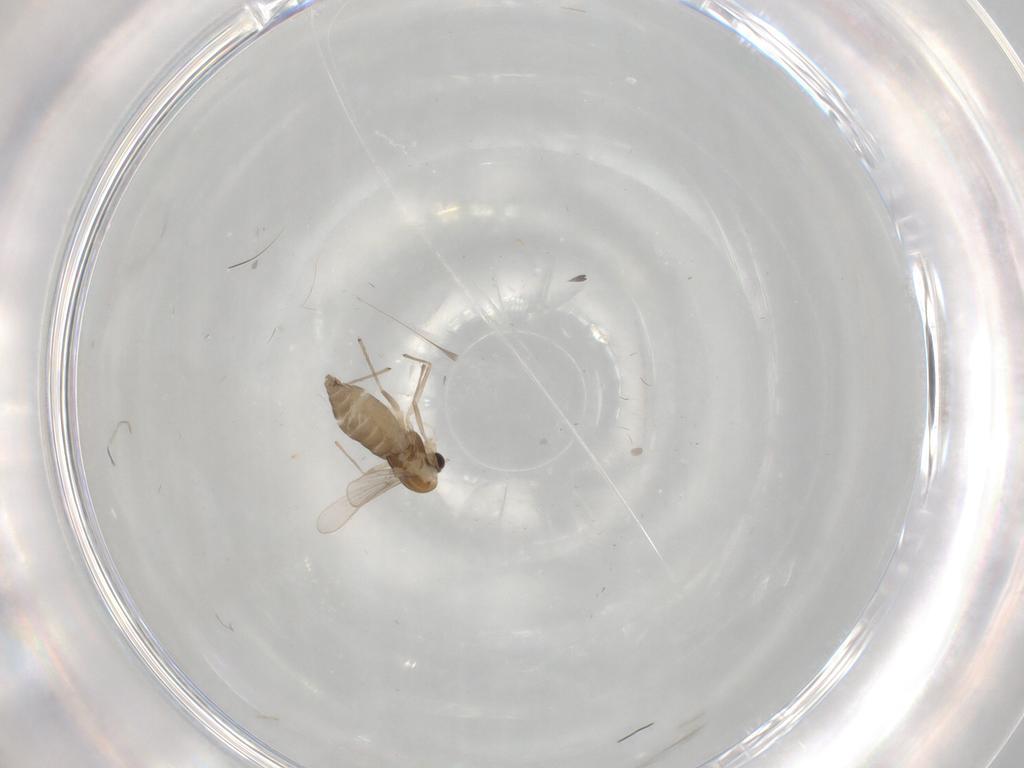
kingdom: Animalia
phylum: Arthropoda
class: Insecta
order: Diptera
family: Chironomidae
